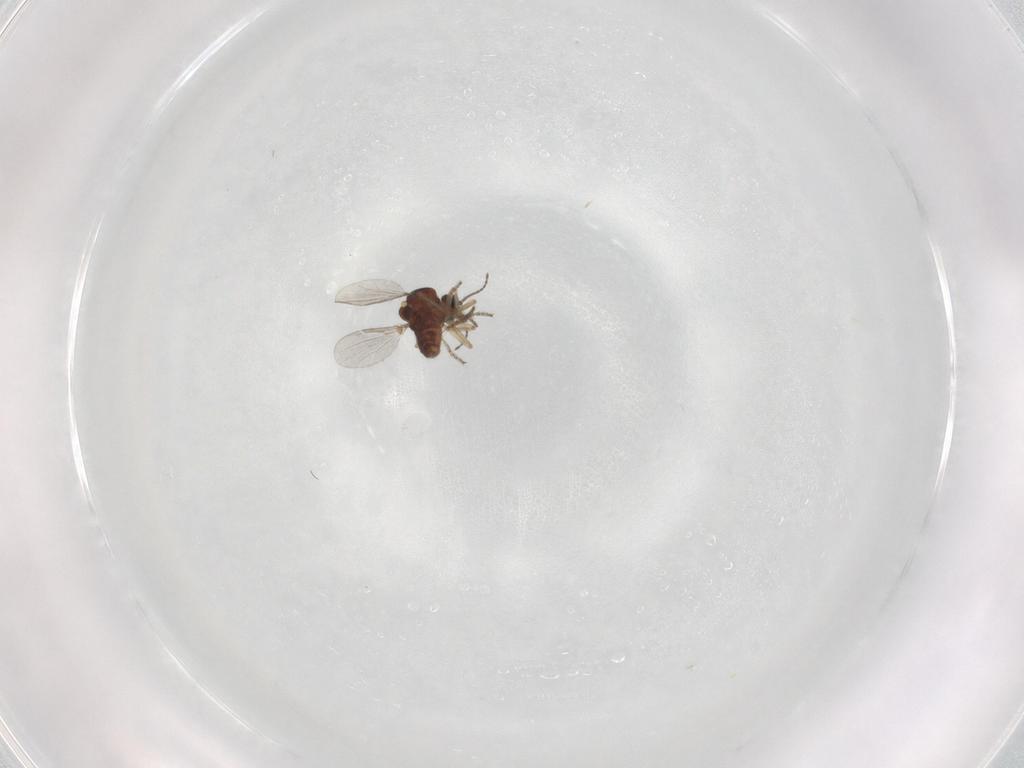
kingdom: Animalia
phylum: Arthropoda
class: Insecta
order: Diptera
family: Ceratopogonidae
